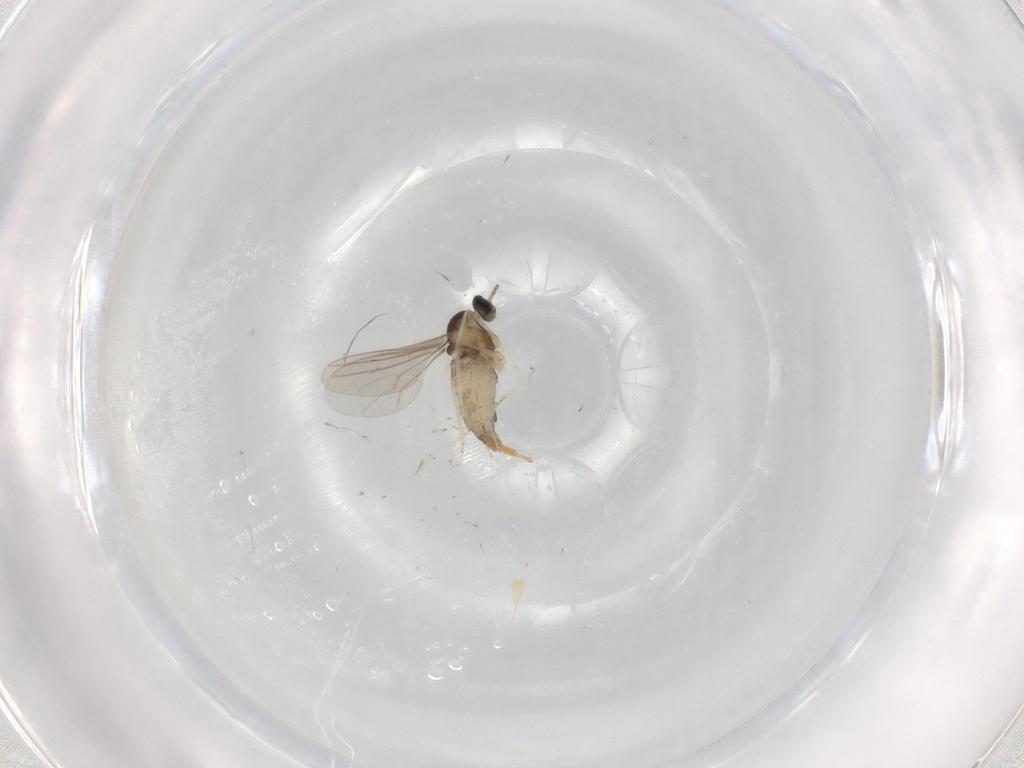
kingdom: Animalia
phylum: Arthropoda
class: Insecta
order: Diptera
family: Cecidomyiidae
